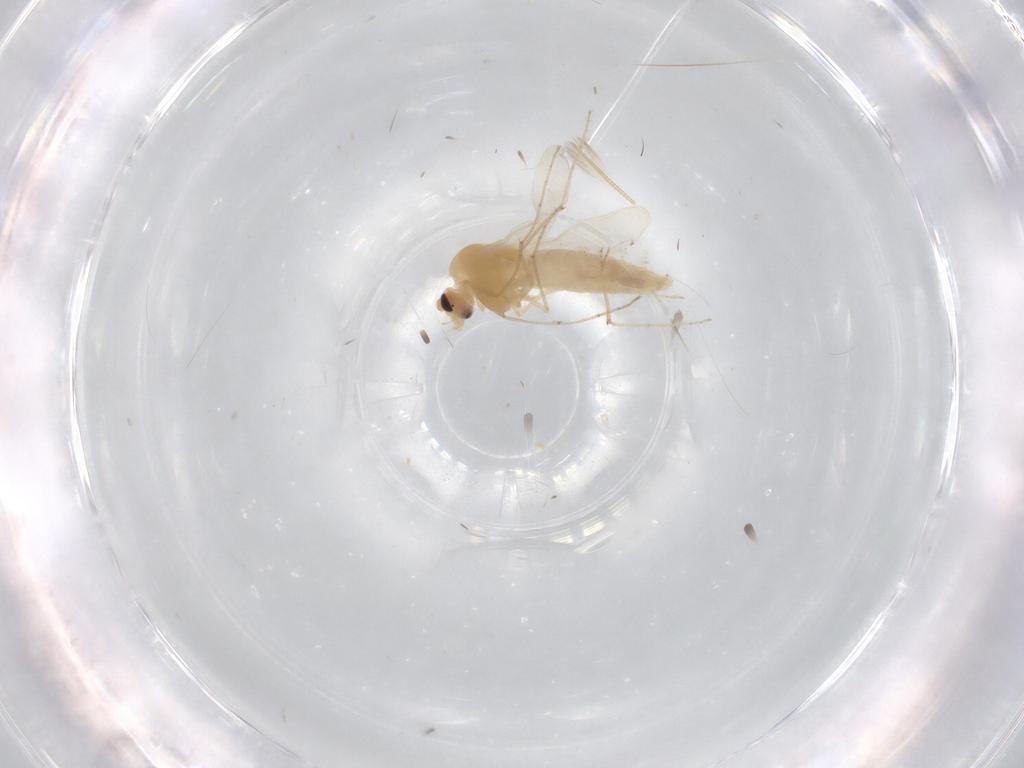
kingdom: Animalia
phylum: Arthropoda
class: Insecta
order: Diptera
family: Chironomidae
